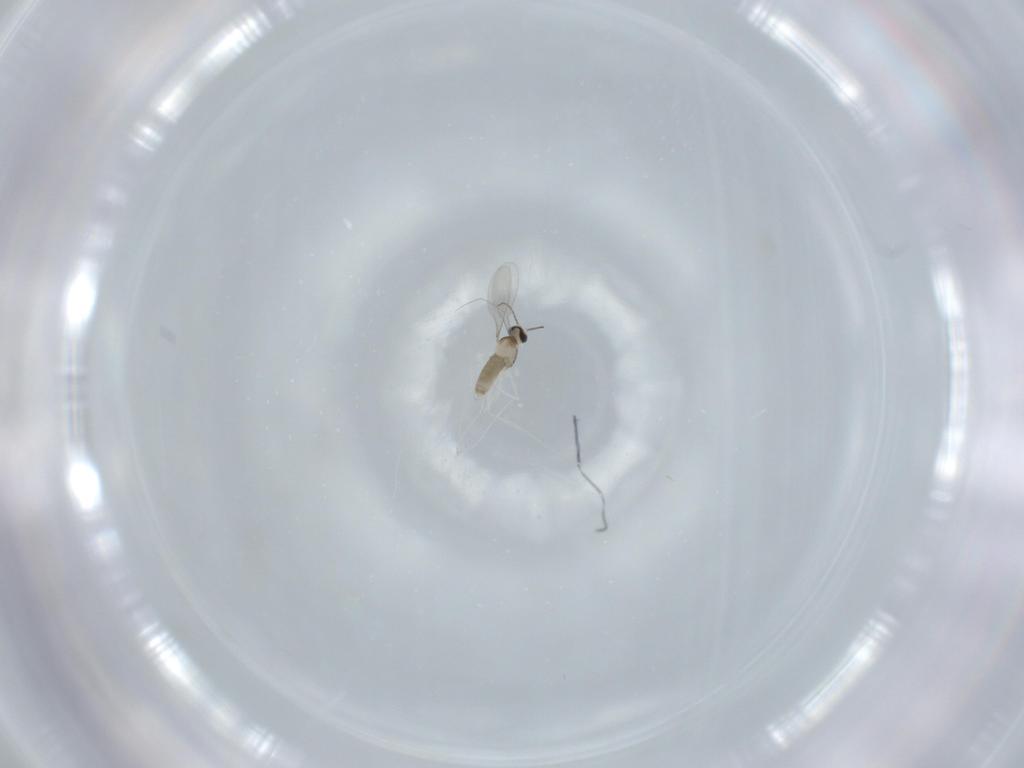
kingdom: Animalia
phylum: Arthropoda
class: Insecta
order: Diptera
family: Cecidomyiidae
